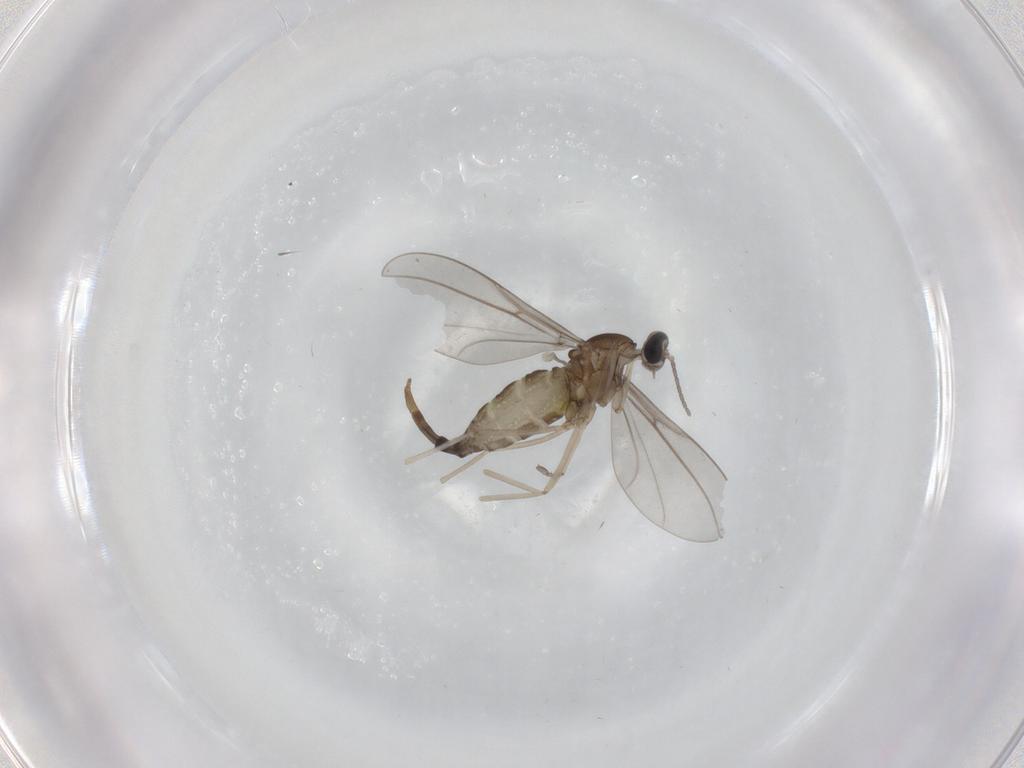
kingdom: Animalia
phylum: Arthropoda
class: Insecta
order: Diptera
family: Phoridae
